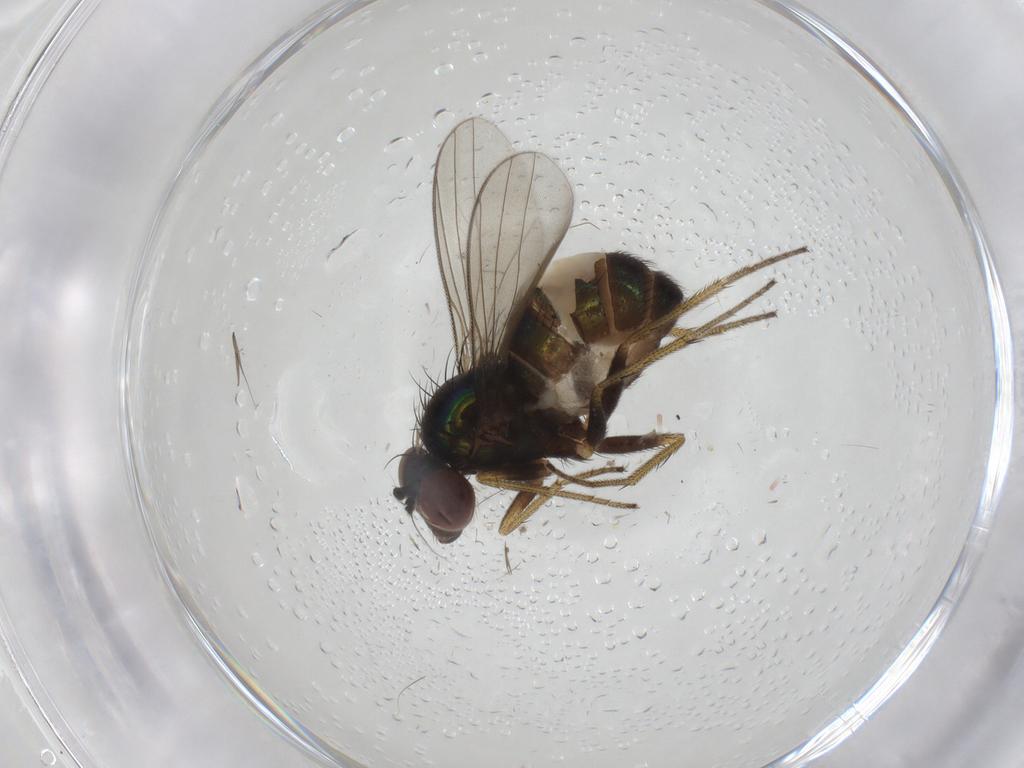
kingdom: Animalia
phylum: Arthropoda
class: Insecta
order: Diptera
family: Dolichopodidae
